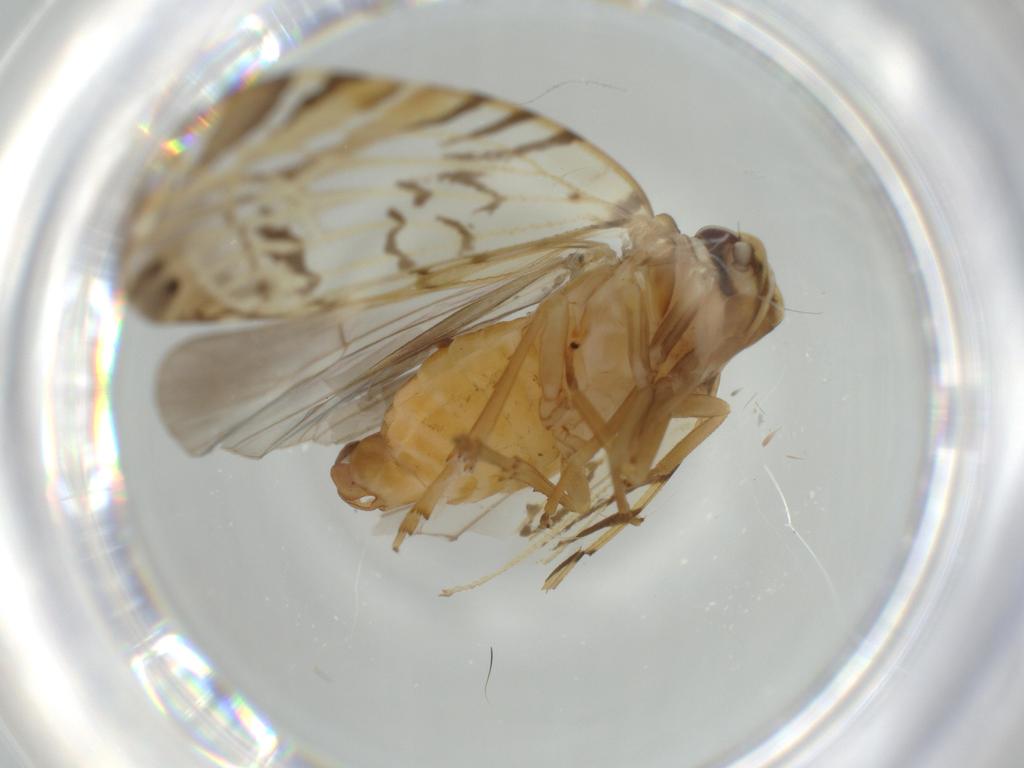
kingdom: Animalia
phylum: Arthropoda
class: Insecta
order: Hemiptera
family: Cixiidae
